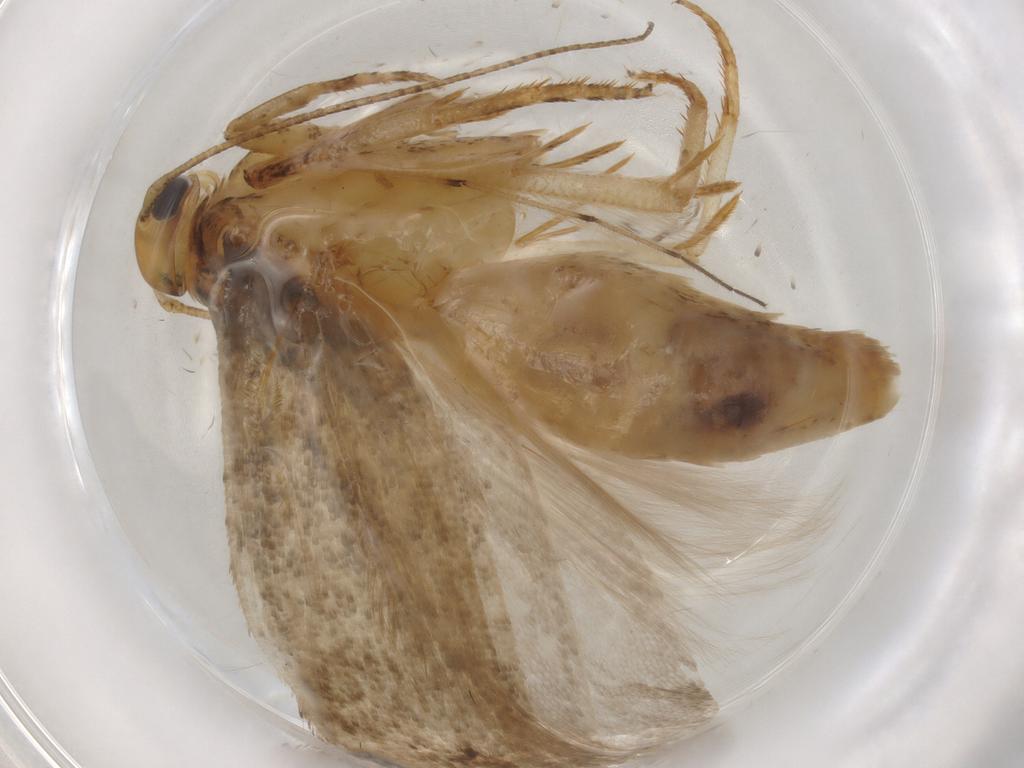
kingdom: Animalia
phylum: Arthropoda
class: Insecta
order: Lepidoptera
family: Gelechiidae
